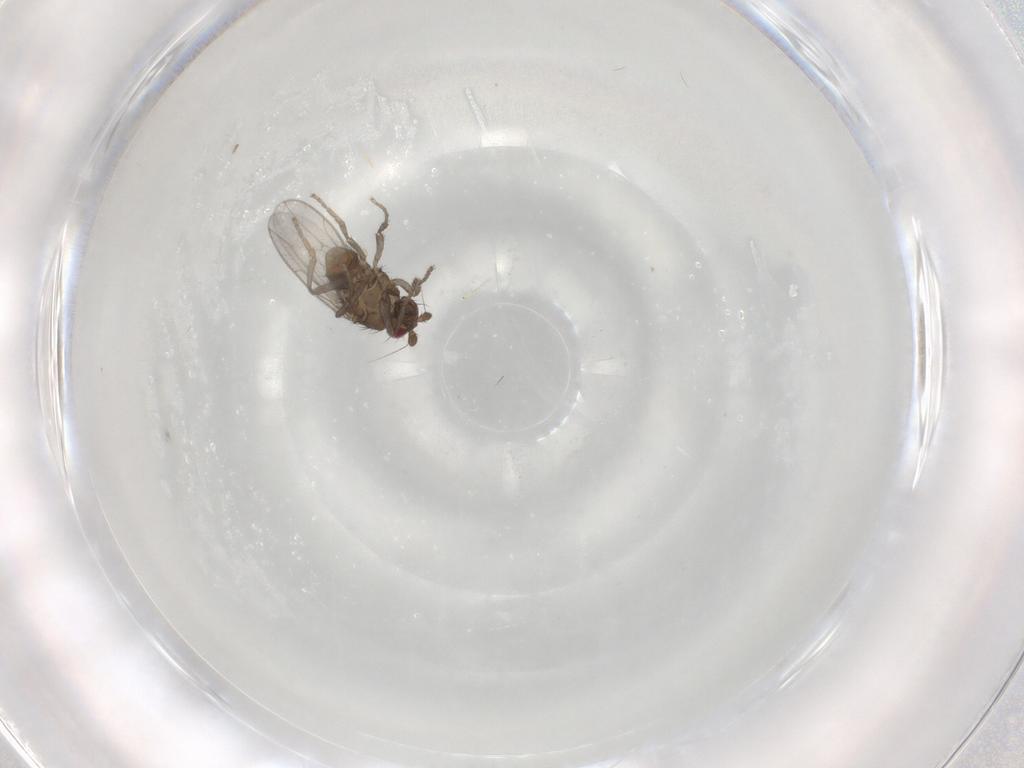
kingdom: Animalia
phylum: Arthropoda
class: Insecta
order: Diptera
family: Sphaeroceridae
